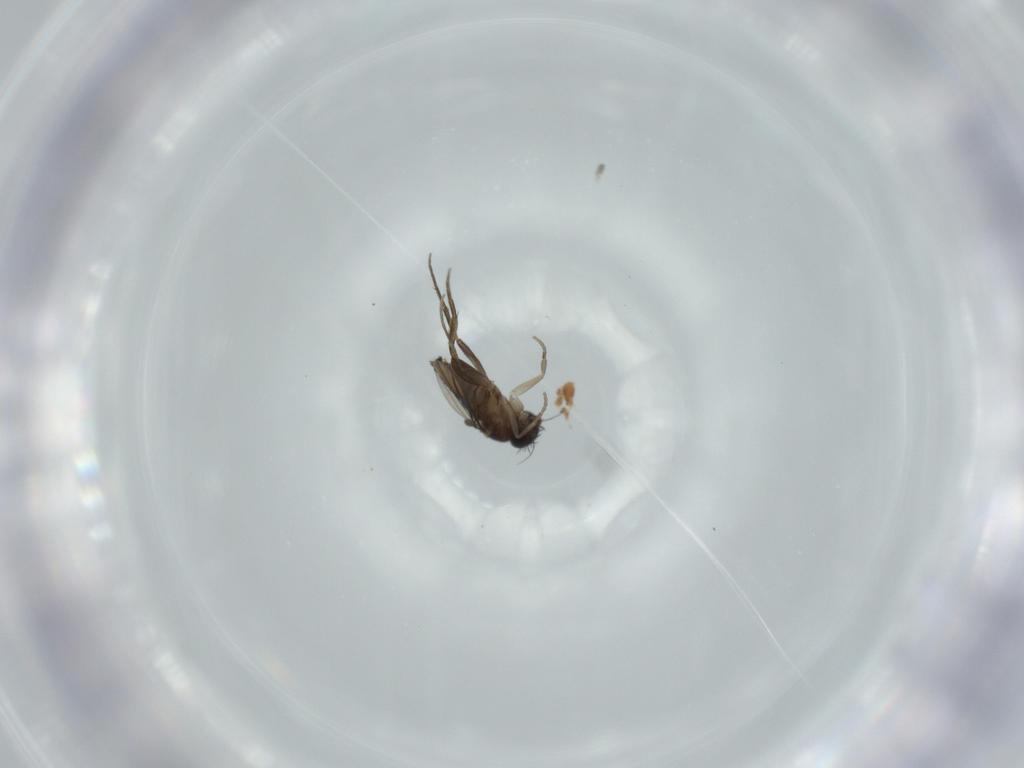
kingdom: Animalia
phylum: Arthropoda
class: Insecta
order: Diptera
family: Phoridae
